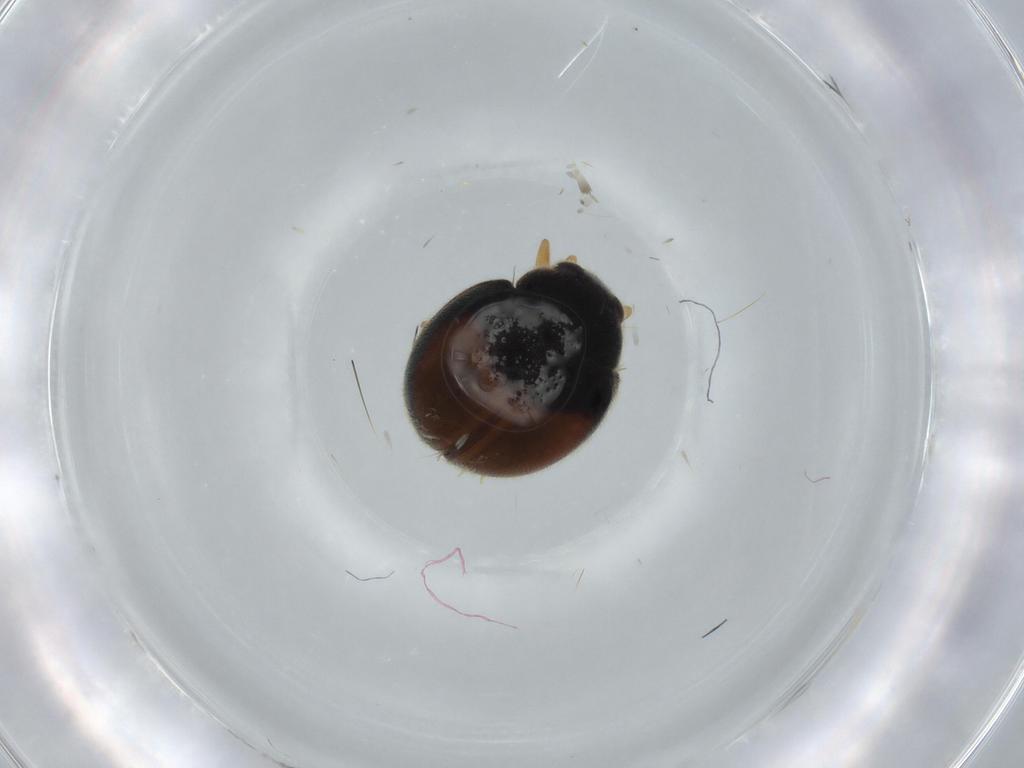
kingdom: Animalia
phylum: Arthropoda
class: Insecta
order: Coleoptera
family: Coccinellidae
